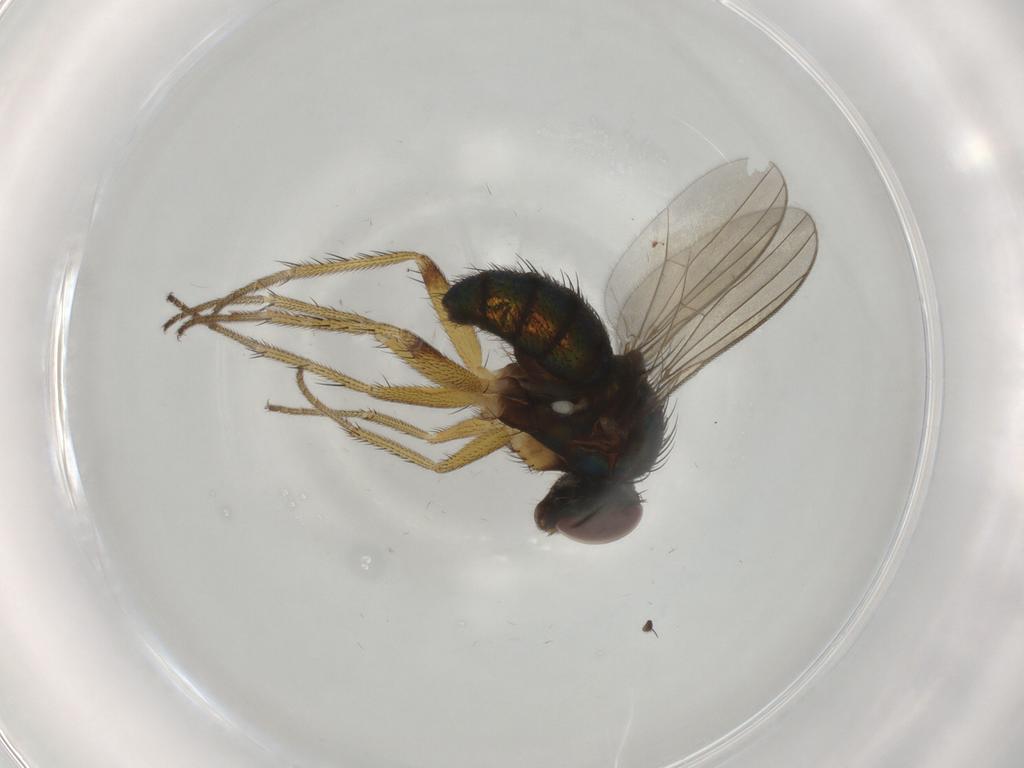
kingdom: Animalia
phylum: Arthropoda
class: Insecta
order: Diptera
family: Dolichopodidae
